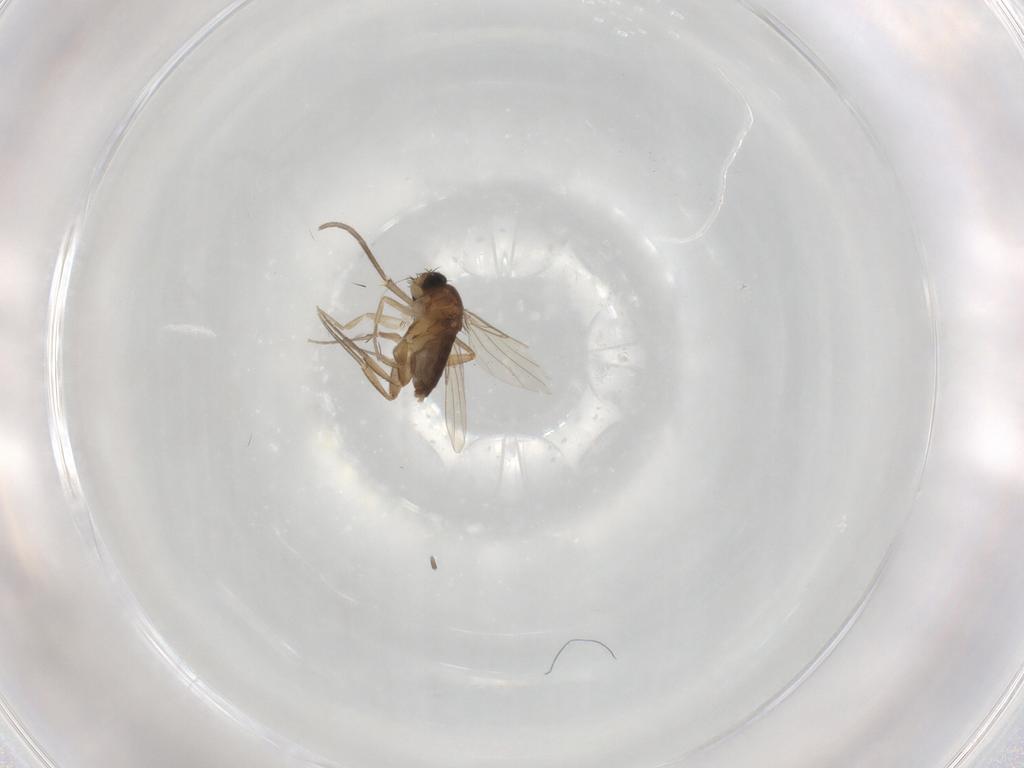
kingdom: Animalia
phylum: Arthropoda
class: Insecta
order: Diptera
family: Phoridae
